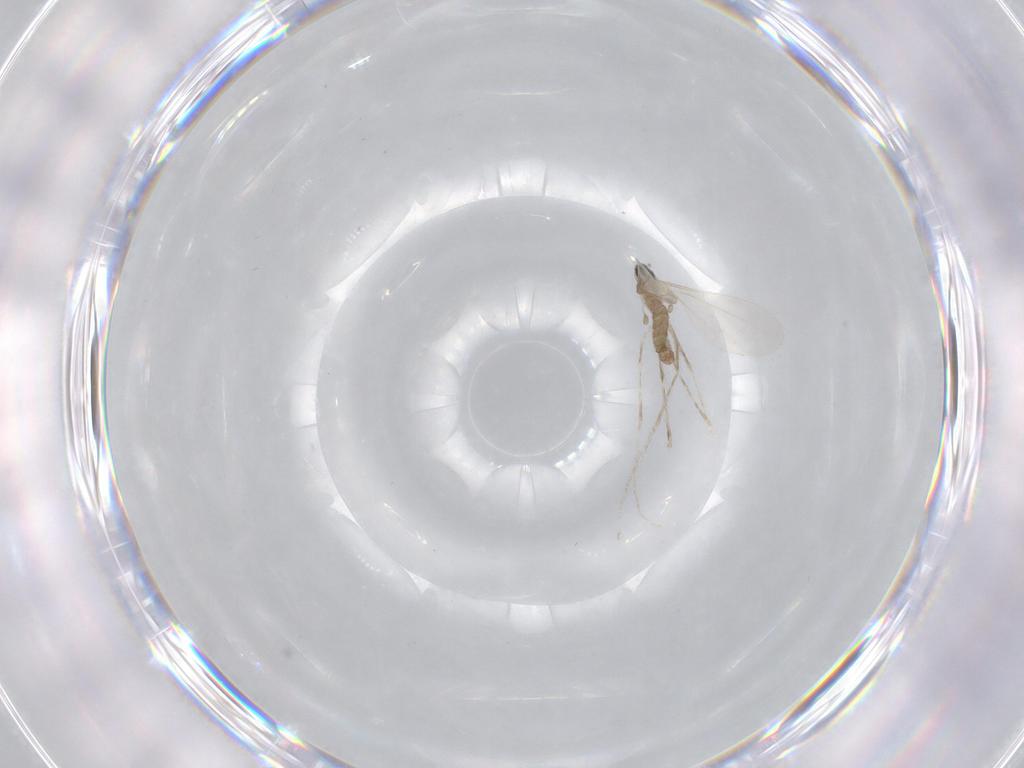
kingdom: Animalia
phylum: Arthropoda
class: Insecta
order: Diptera
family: Cecidomyiidae
